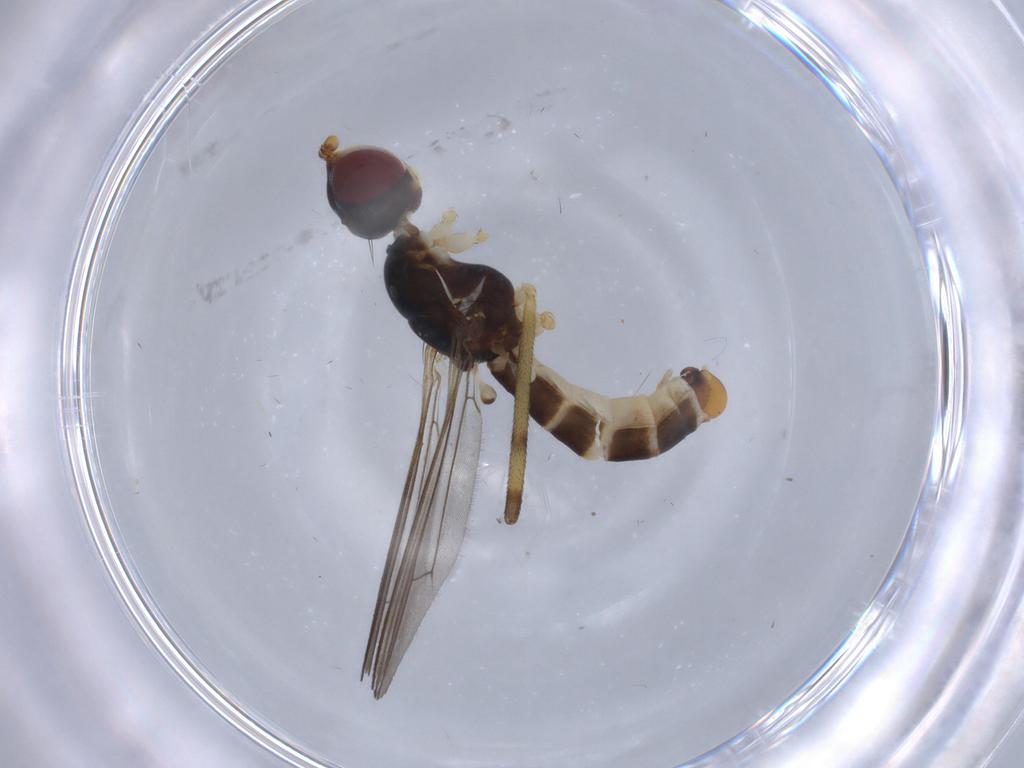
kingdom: Animalia
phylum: Arthropoda
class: Insecta
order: Diptera
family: Micropezidae
